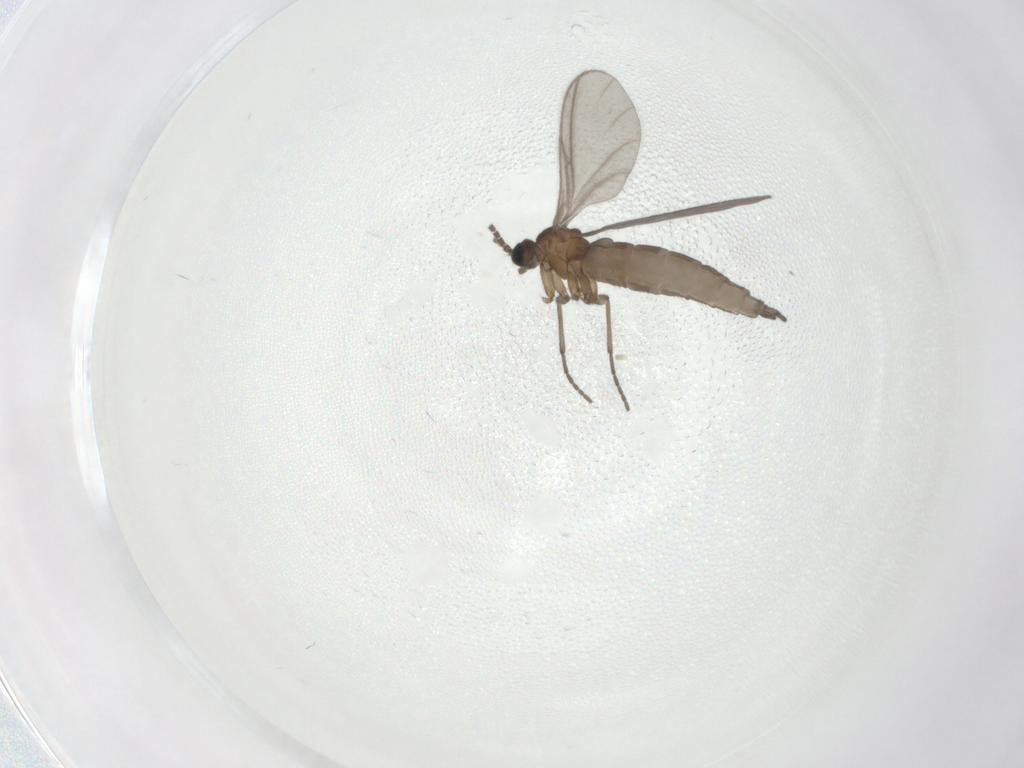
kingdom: Animalia
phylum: Arthropoda
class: Insecta
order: Diptera
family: Sciaridae
